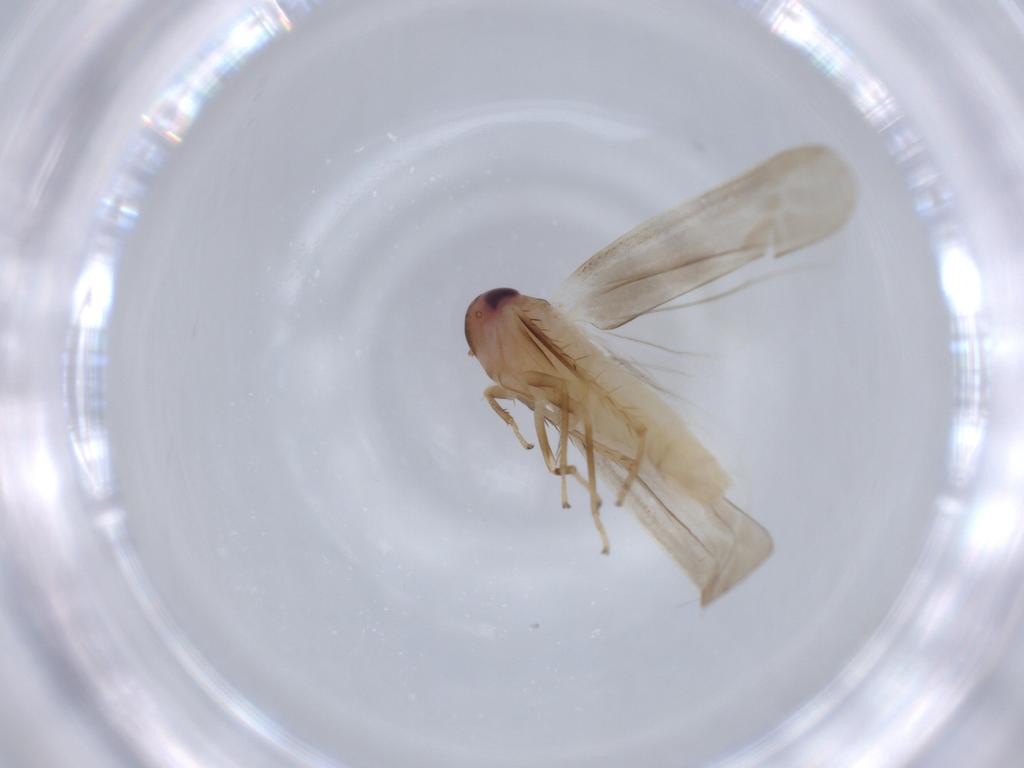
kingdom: Animalia
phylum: Arthropoda
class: Insecta
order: Hemiptera
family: Cicadellidae
